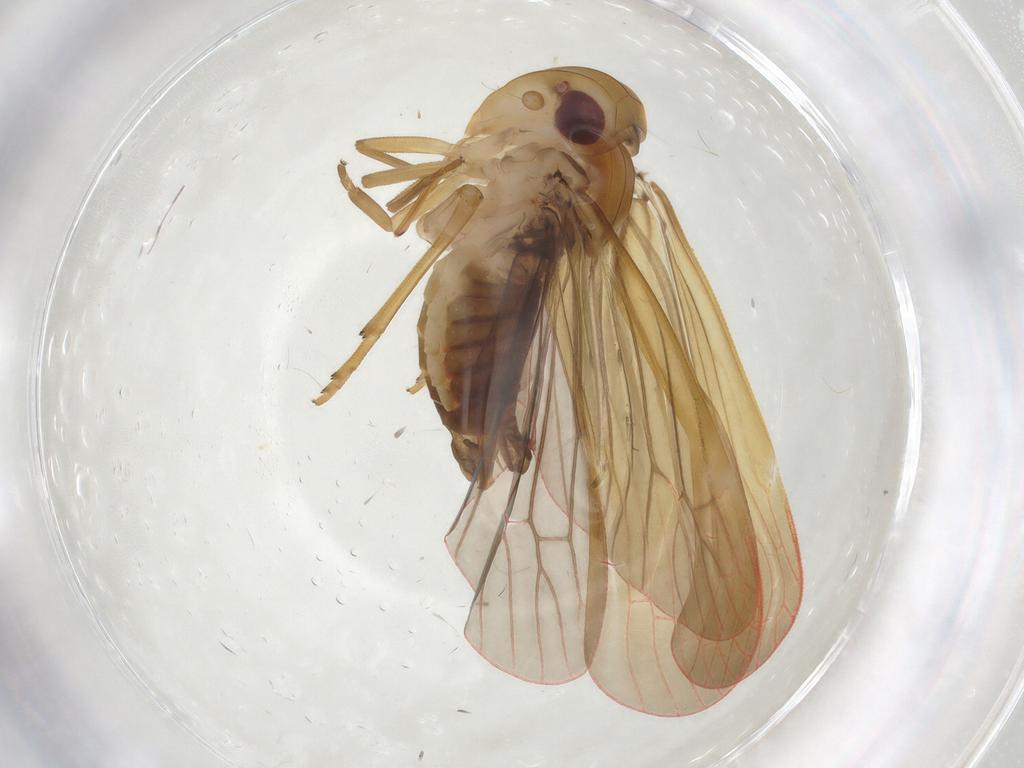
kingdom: Animalia
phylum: Arthropoda
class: Insecta
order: Hemiptera
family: Achilidae
